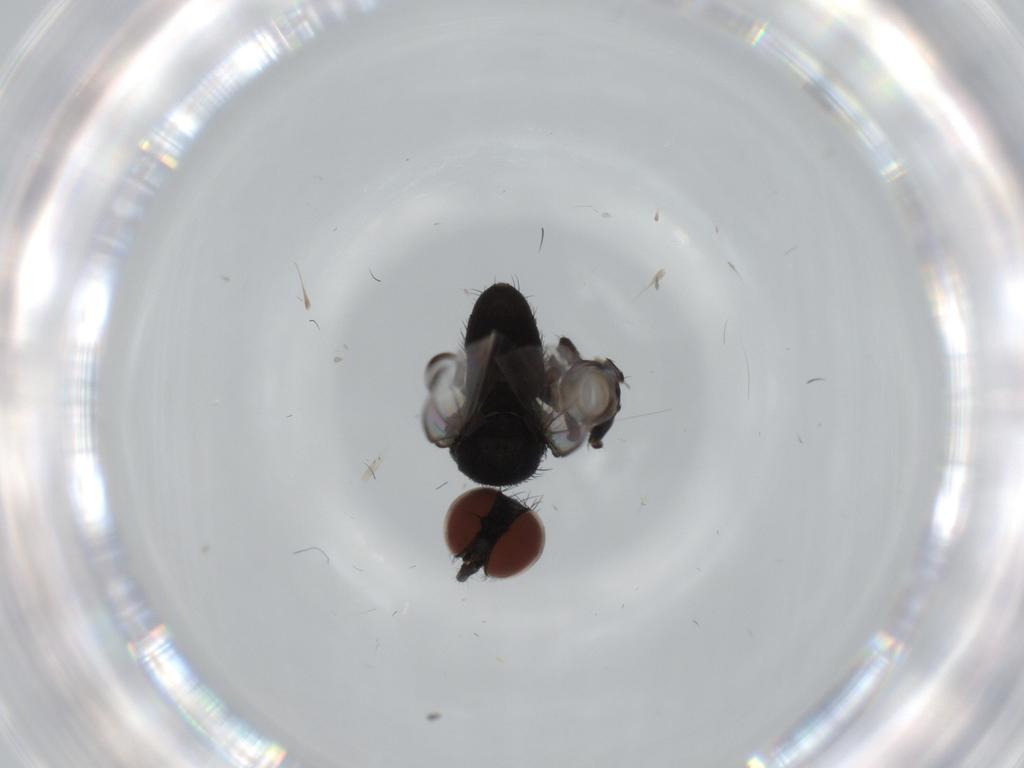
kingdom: Animalia
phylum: Arthropoda
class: Insecta
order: Diptera
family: Milichiidae
